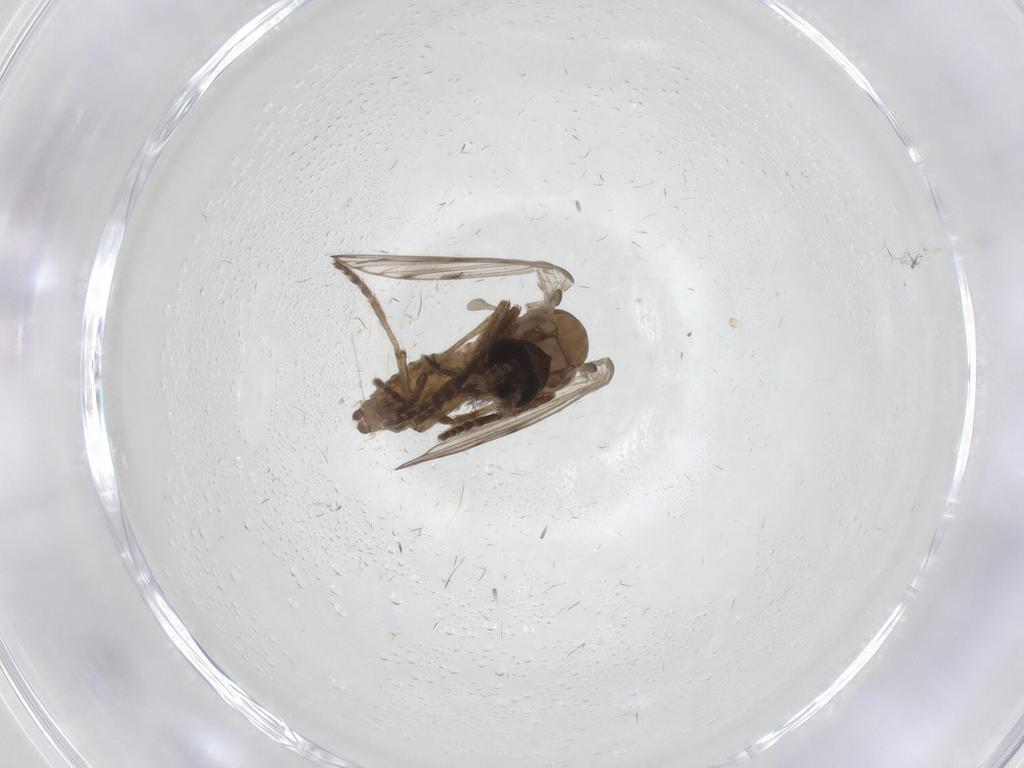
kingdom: Animalia
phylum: Arthropoda
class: Insecta
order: Diptera
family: Psychodidae
